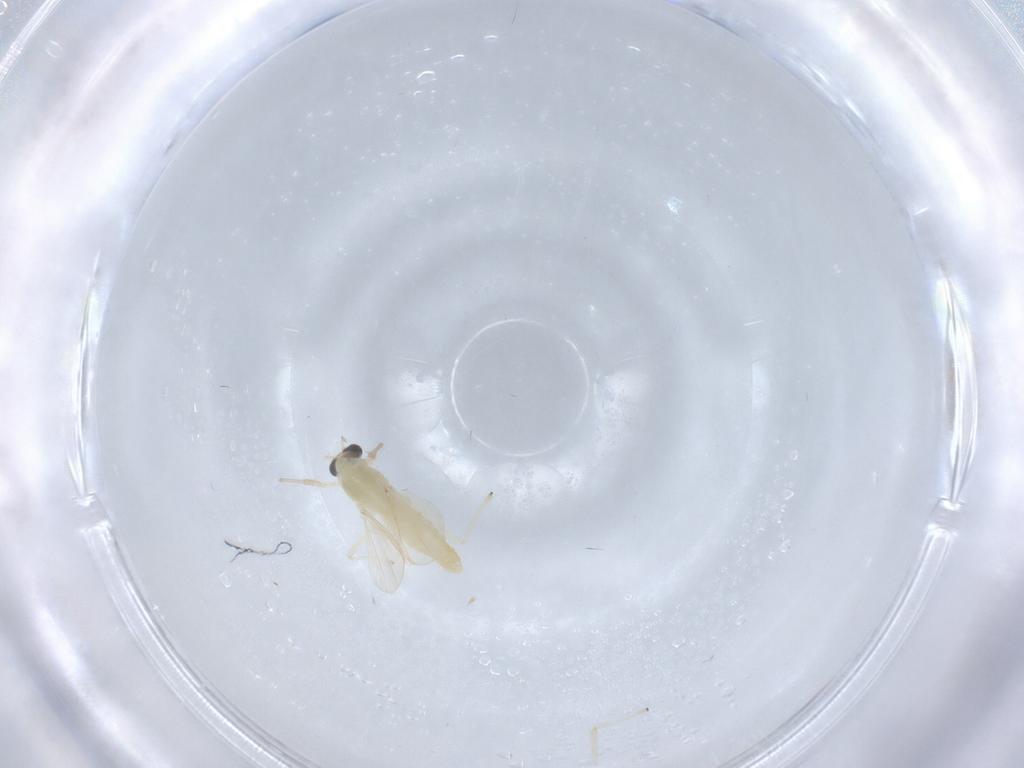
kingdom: Animalia
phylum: Arthropoda
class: Insecta
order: Diptera
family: Chironomidae
